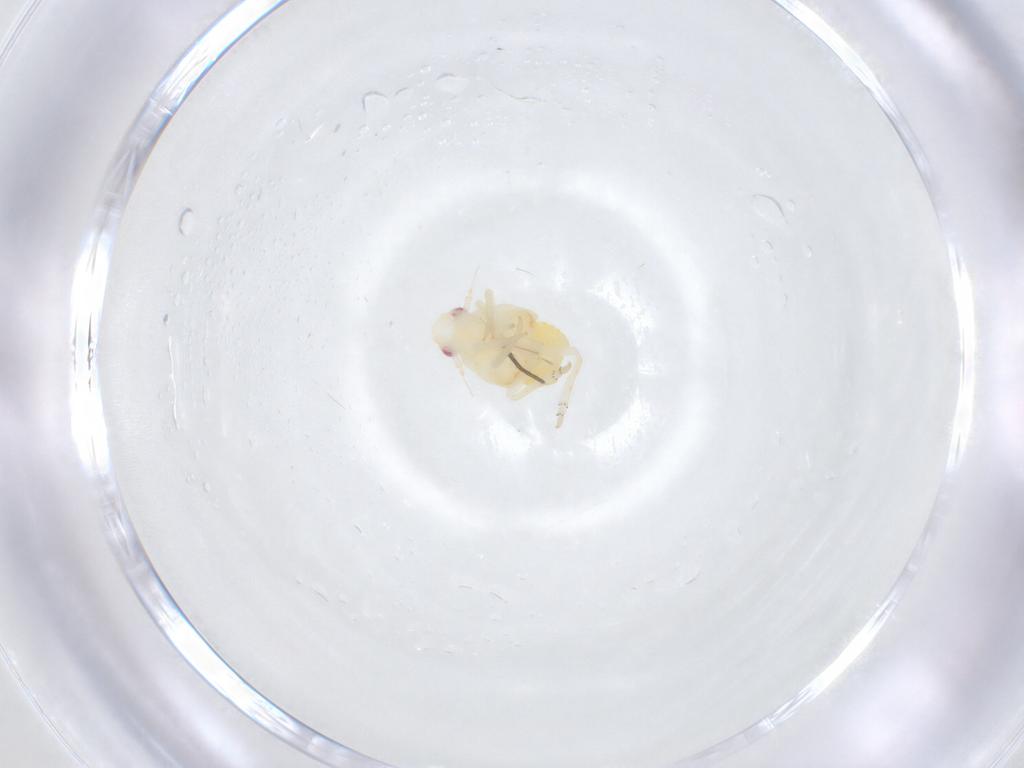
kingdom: Animalia
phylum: Arthropoda
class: Insecta
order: Hemiptera
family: Fulgoroidea_incertae_sedis
